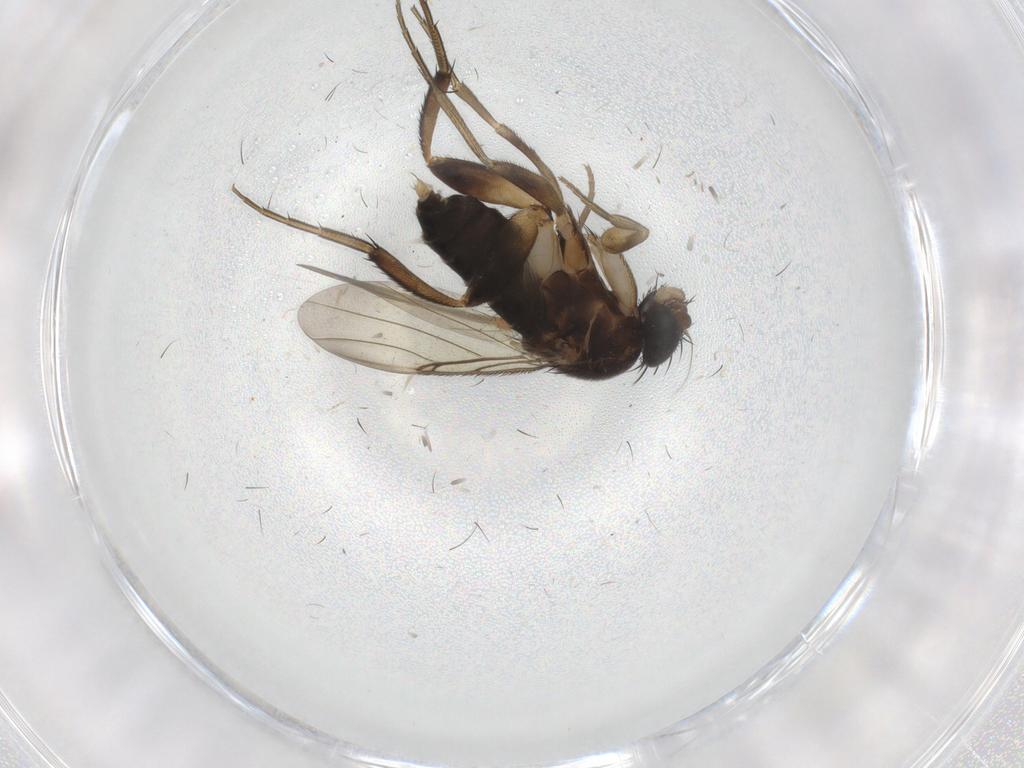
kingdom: Animalia
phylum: Arthropoda
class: Insecta
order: Diptera
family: Phoridae
